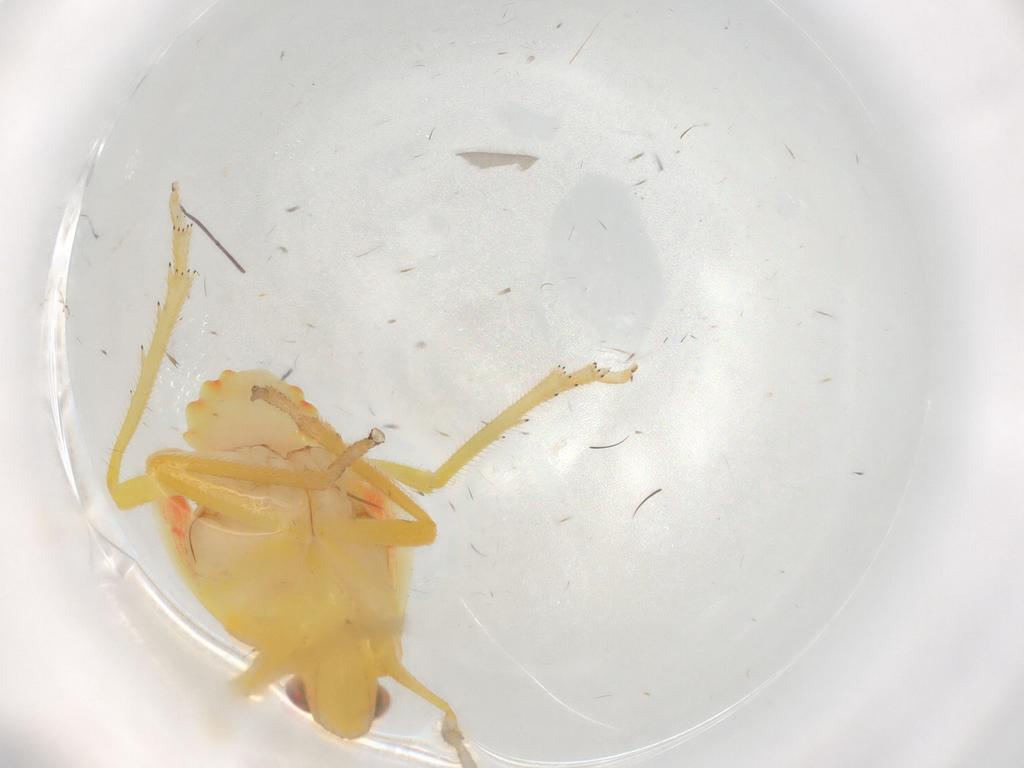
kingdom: Animalia
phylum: Arthropoda
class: Insecta
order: Hemiptera
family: Tropiduchidae
